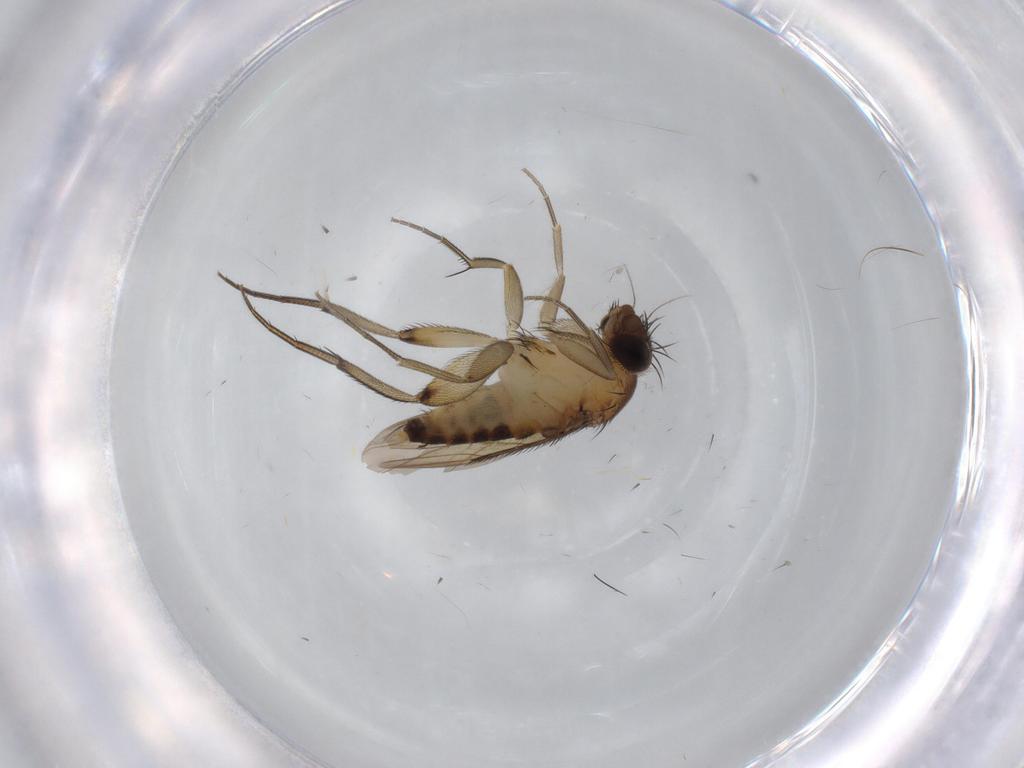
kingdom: Animalia
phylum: Arthropoda
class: Insecta
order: Diptera
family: Phoridae
